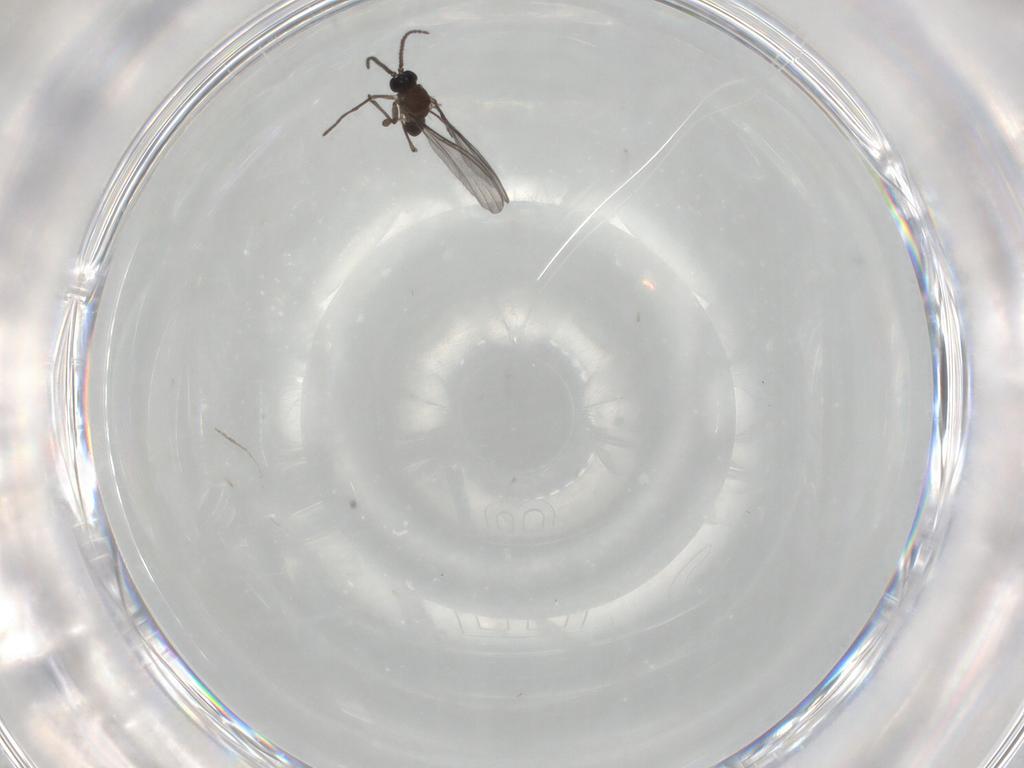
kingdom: Animalia
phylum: Arthropoda
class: Insecta
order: Diptera
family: Cecidomyiidae
